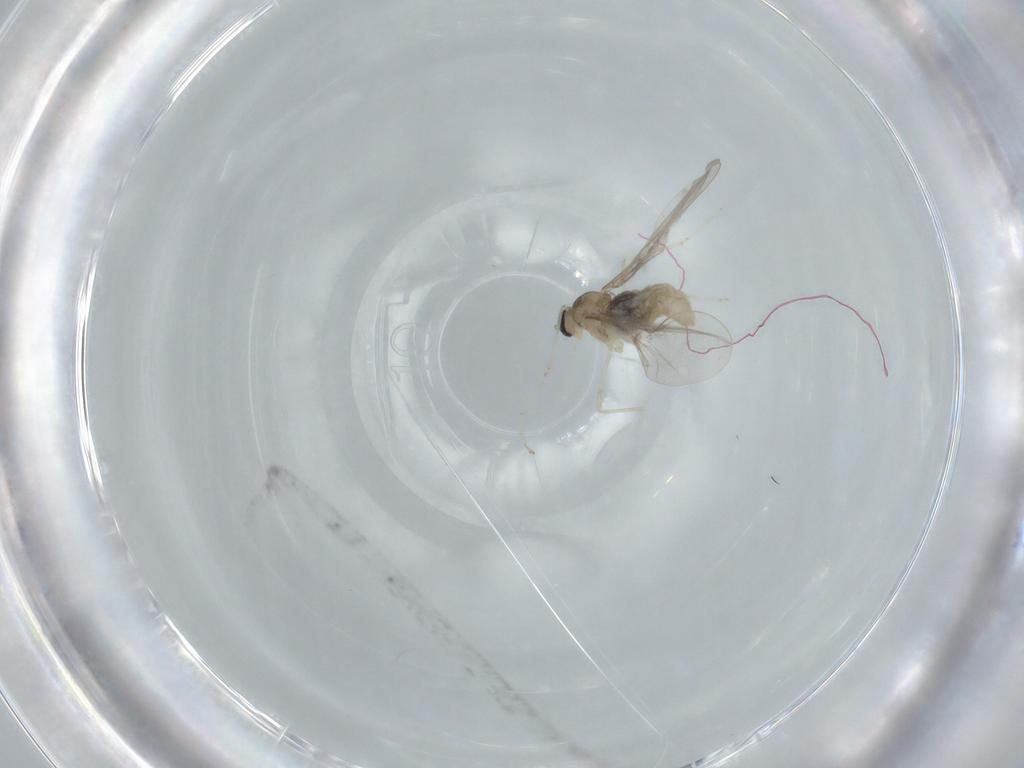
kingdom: Animalia
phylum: Arthropoda
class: Insecta
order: Diptera
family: Cecidomyiidae
